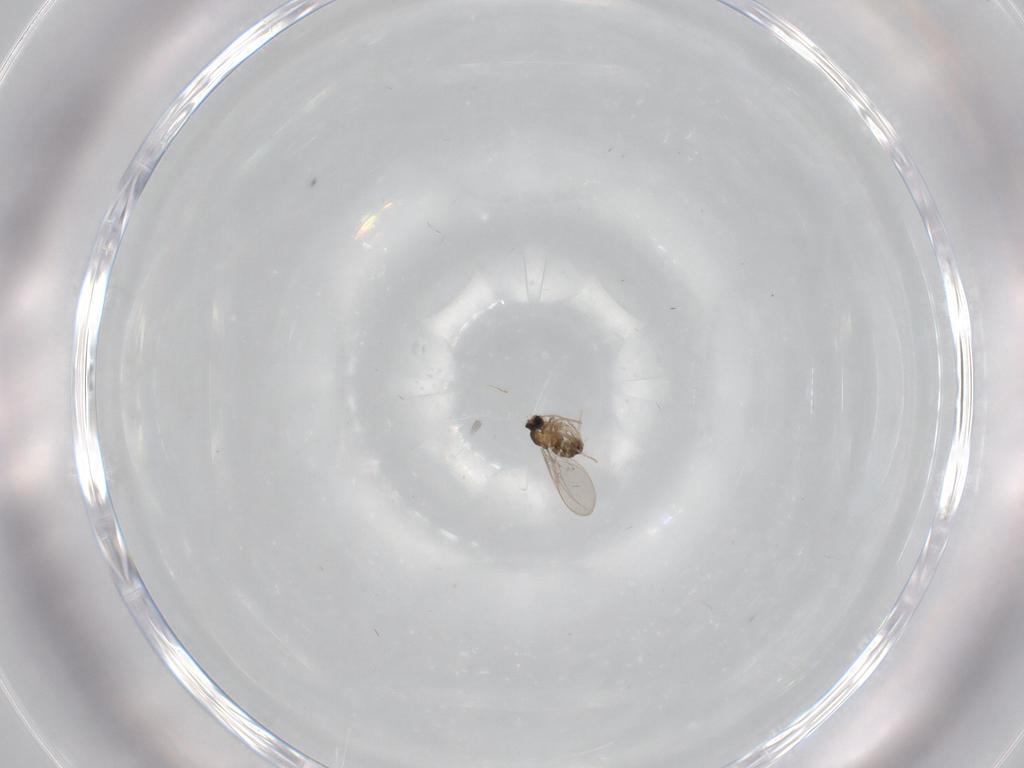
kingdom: Animalia
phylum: Arthropoda
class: Insecta
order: Diptera
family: Cecidomyiidae
